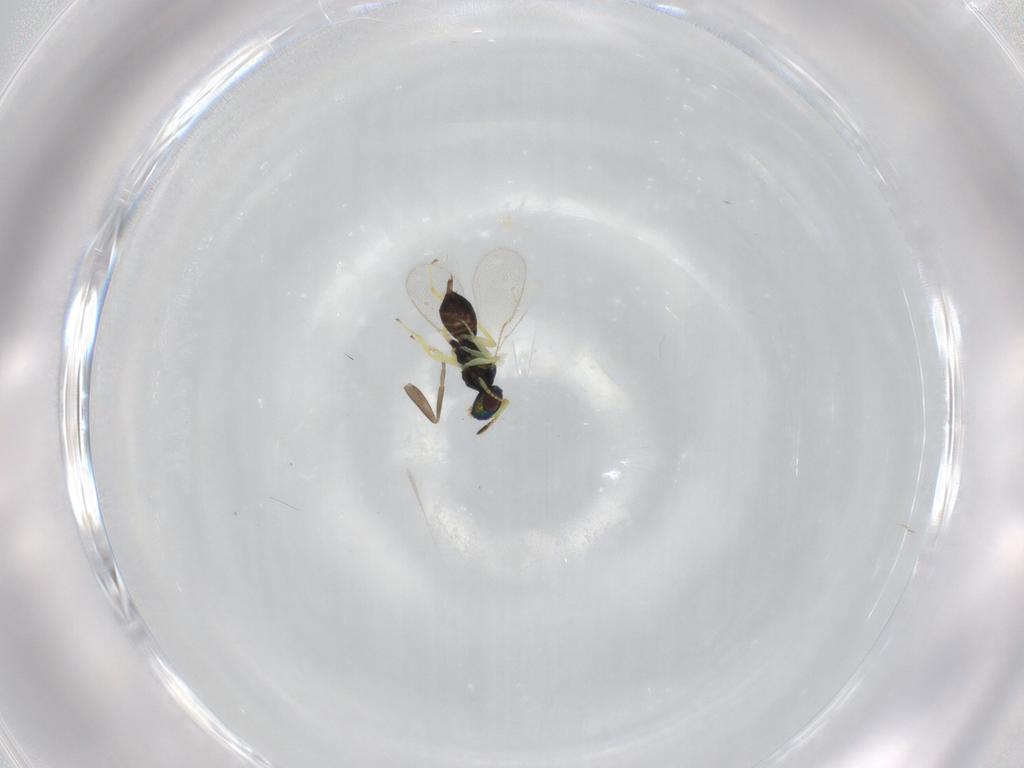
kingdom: Animalia
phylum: Arthropoda
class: Insecta
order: Hymenoptera
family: Pteromalidae
